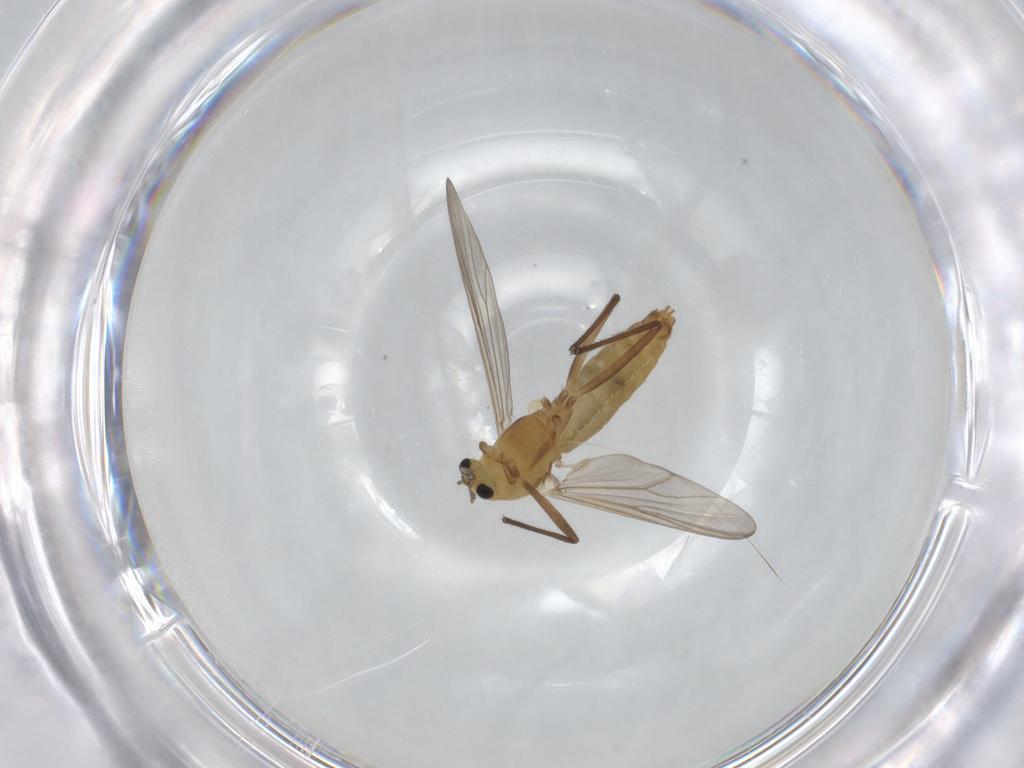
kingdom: Animalia
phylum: Arthropoda
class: Insecta
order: Diptera
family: Chironomidae
